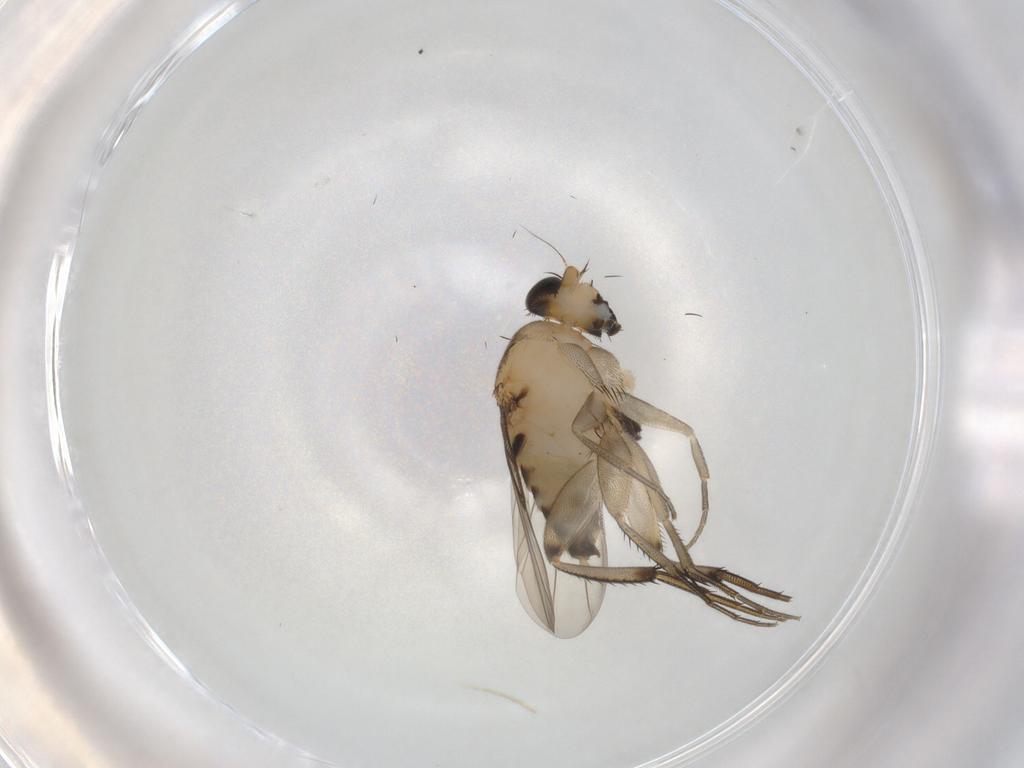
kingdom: Animalia
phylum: Arthropoda
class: Insecta
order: Diptera
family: Phoridae
